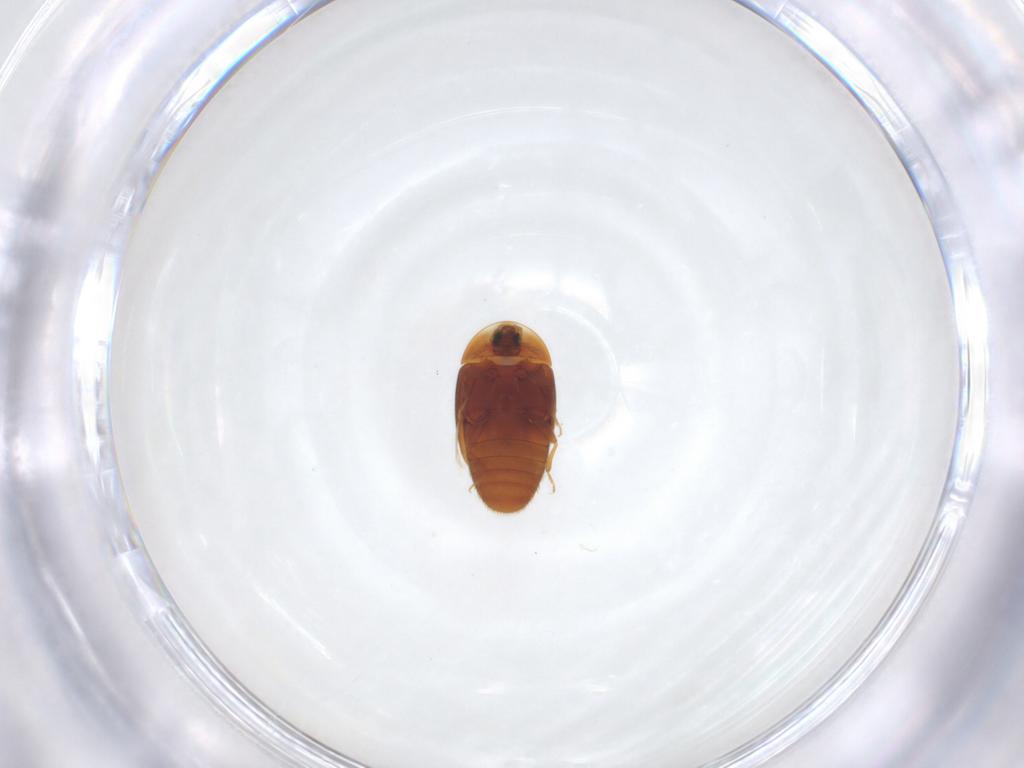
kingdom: Animalia
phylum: Arthropoda
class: Insecta
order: Coleoptera
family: Corylophidae
